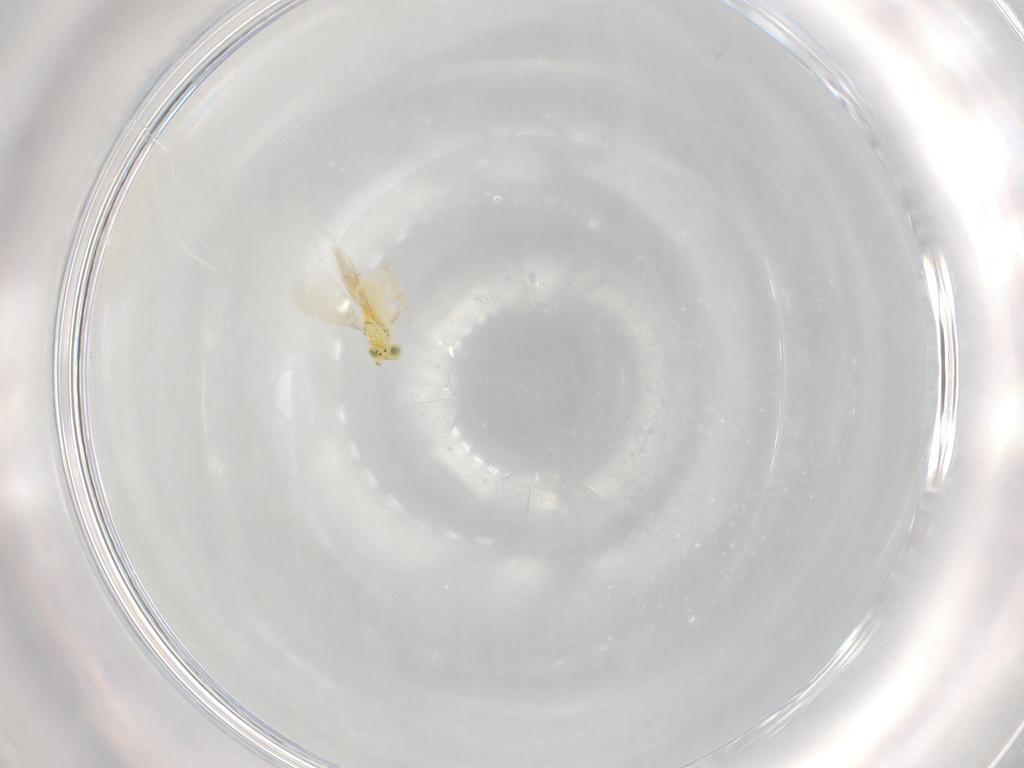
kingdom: Animalia
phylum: Arthropoda
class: Insecta
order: Hymenoptera
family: Aphelinidae
